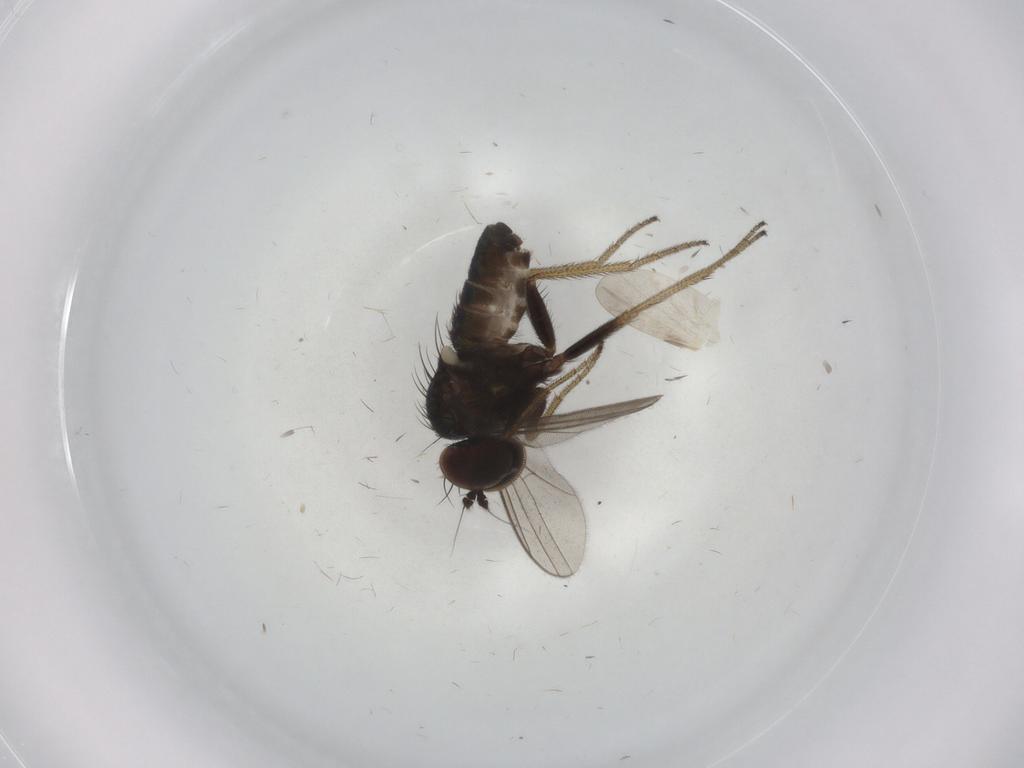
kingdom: Animalia
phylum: Arthropoda
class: Insecta
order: Diptera
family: Dolichopodidae
